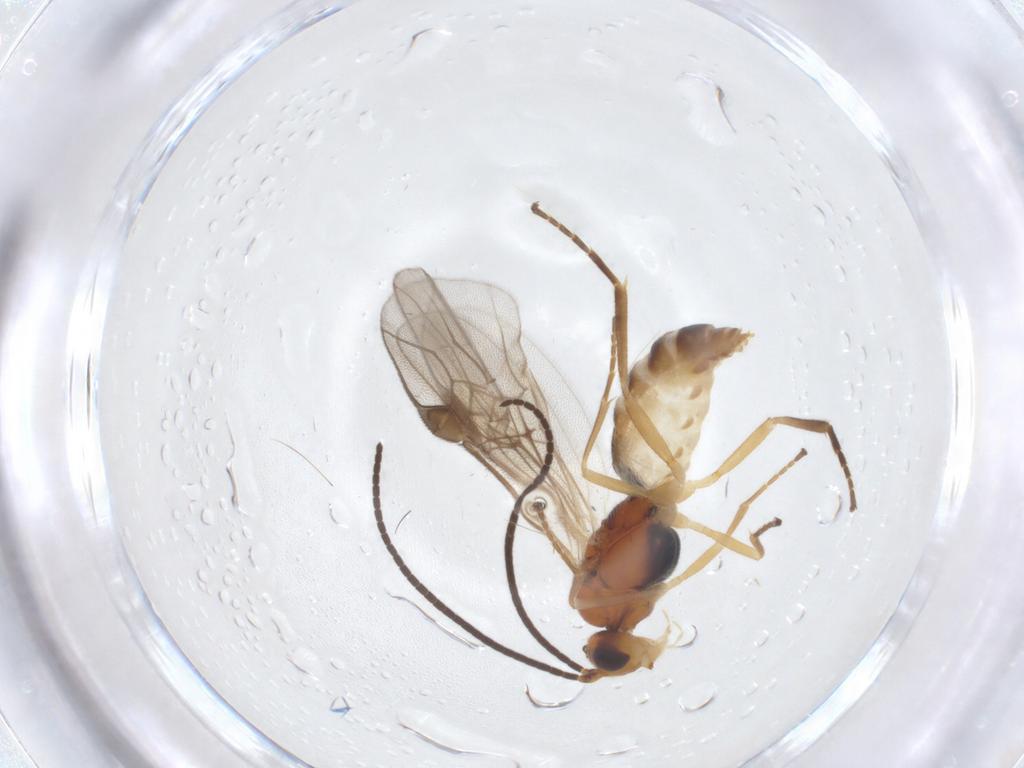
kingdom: Animalia
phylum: Arthropoda
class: Insecta
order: Hymenoptera
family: Braconidae
